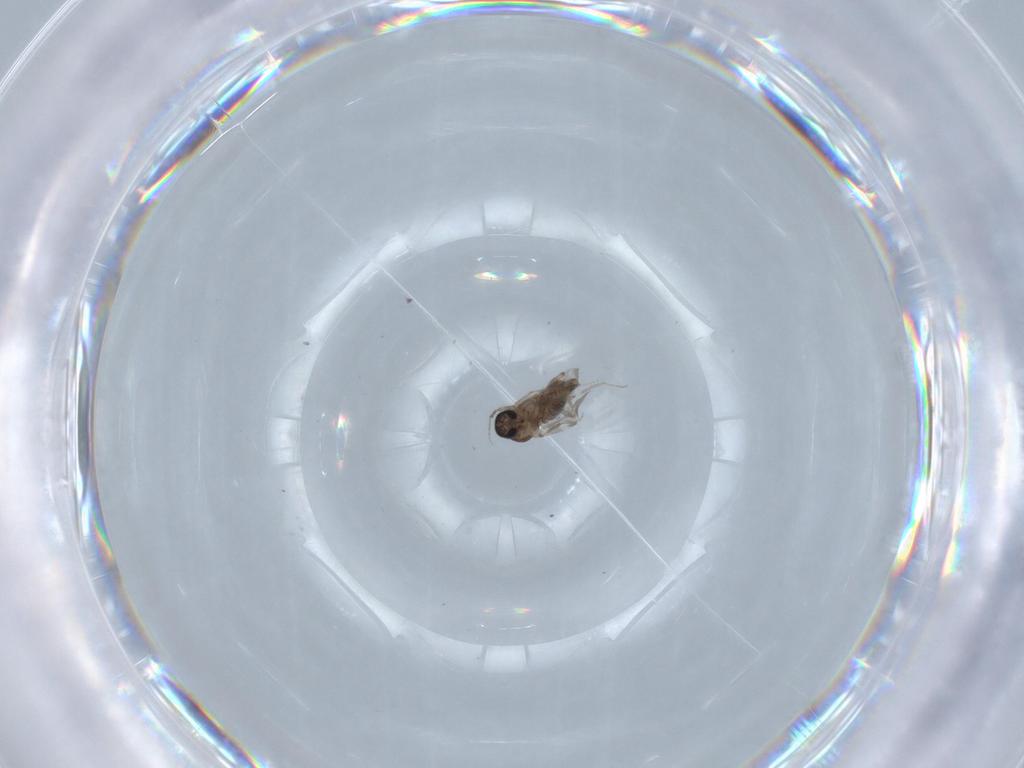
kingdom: Animalia
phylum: Arthropoda
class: Insecta
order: Diptera
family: Ceratopogonidae
